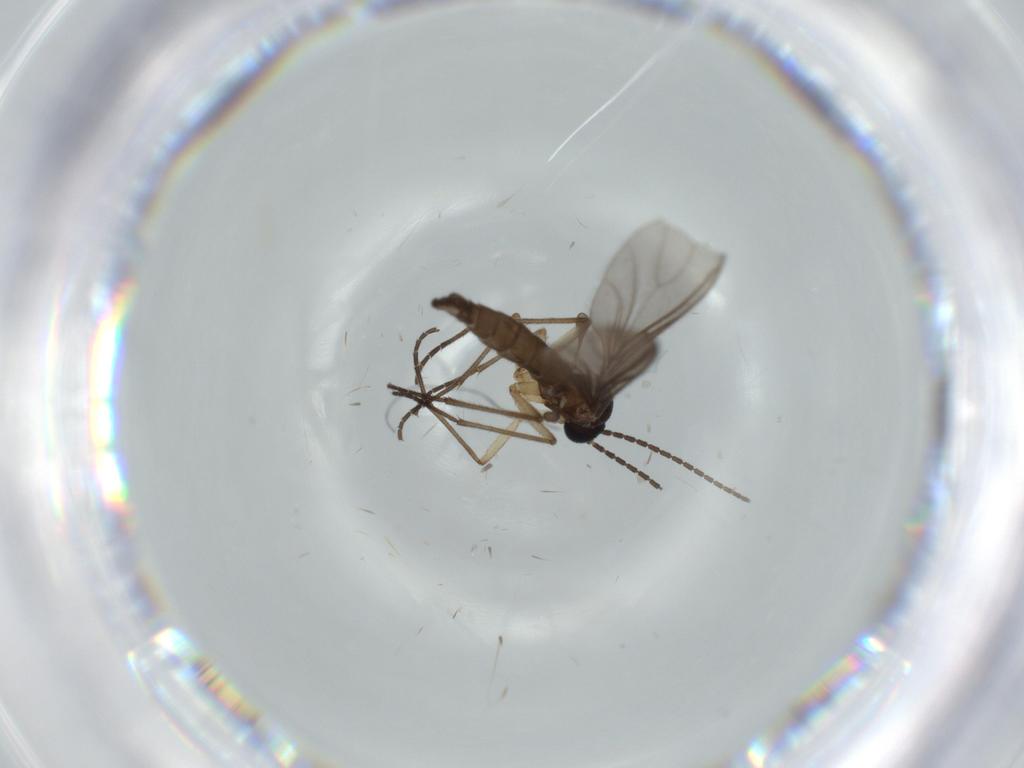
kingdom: Animalia
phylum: Arthropoda
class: Insecta
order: Diptera
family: Sciaridae
